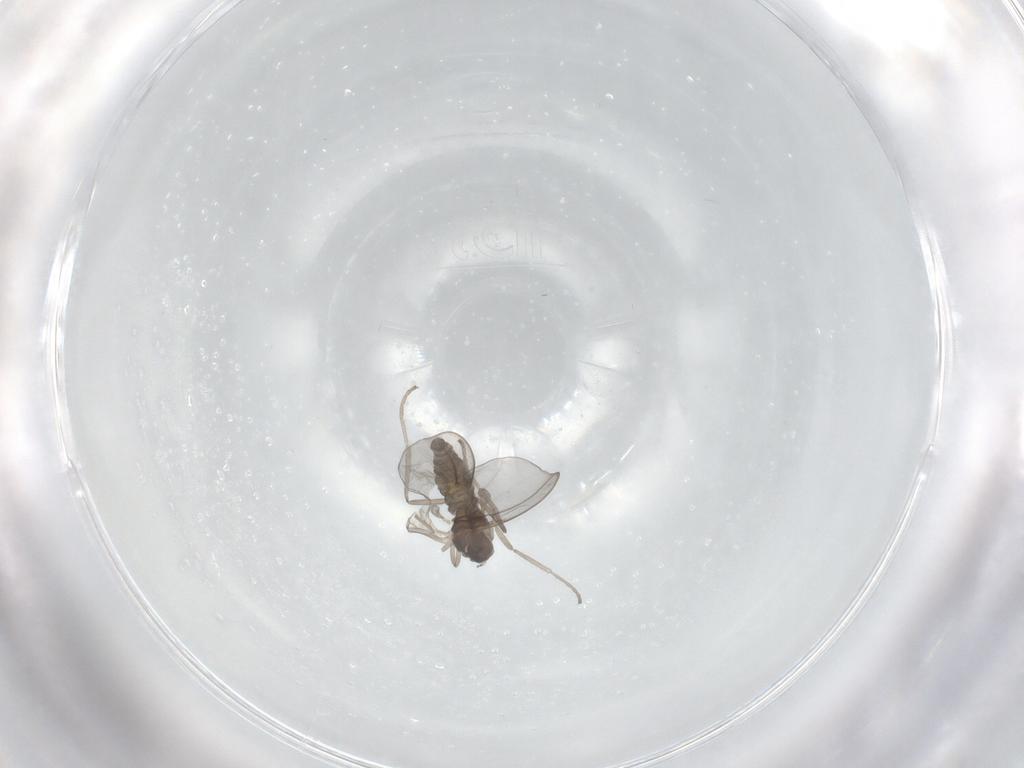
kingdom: Animalia
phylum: Arthropoda
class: Insecta
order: Diptera
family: Cecidomyiidae
